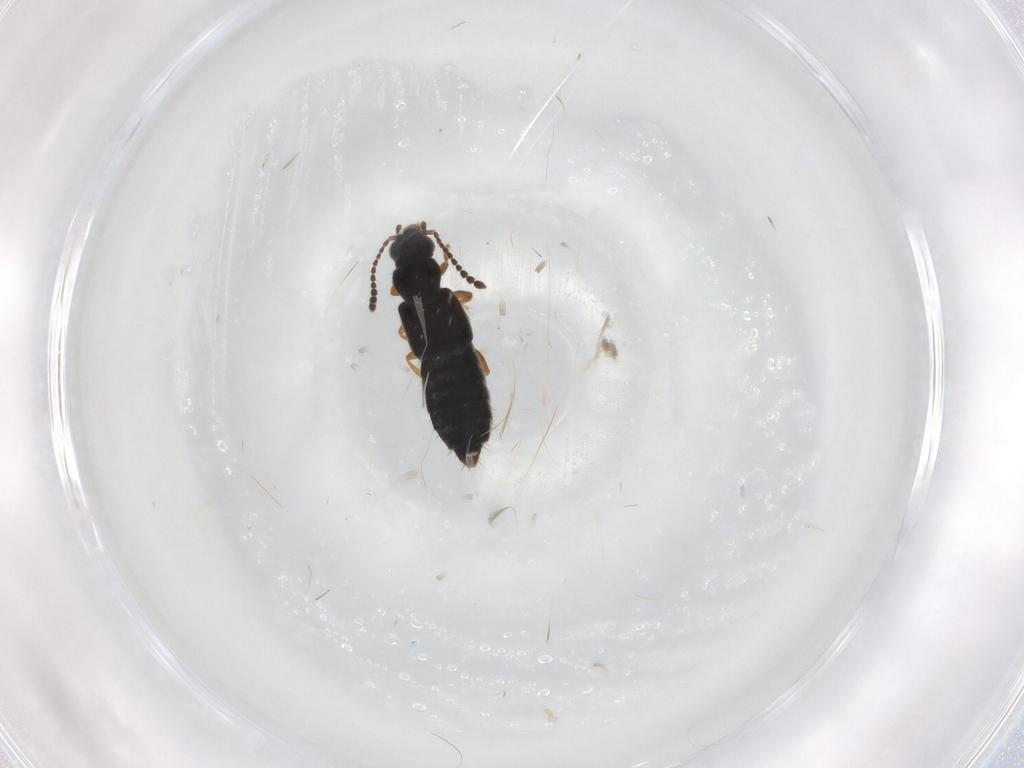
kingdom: Animalia
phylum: Arthropoda
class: Insecta
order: Coleoptera
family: Staphylinidae
